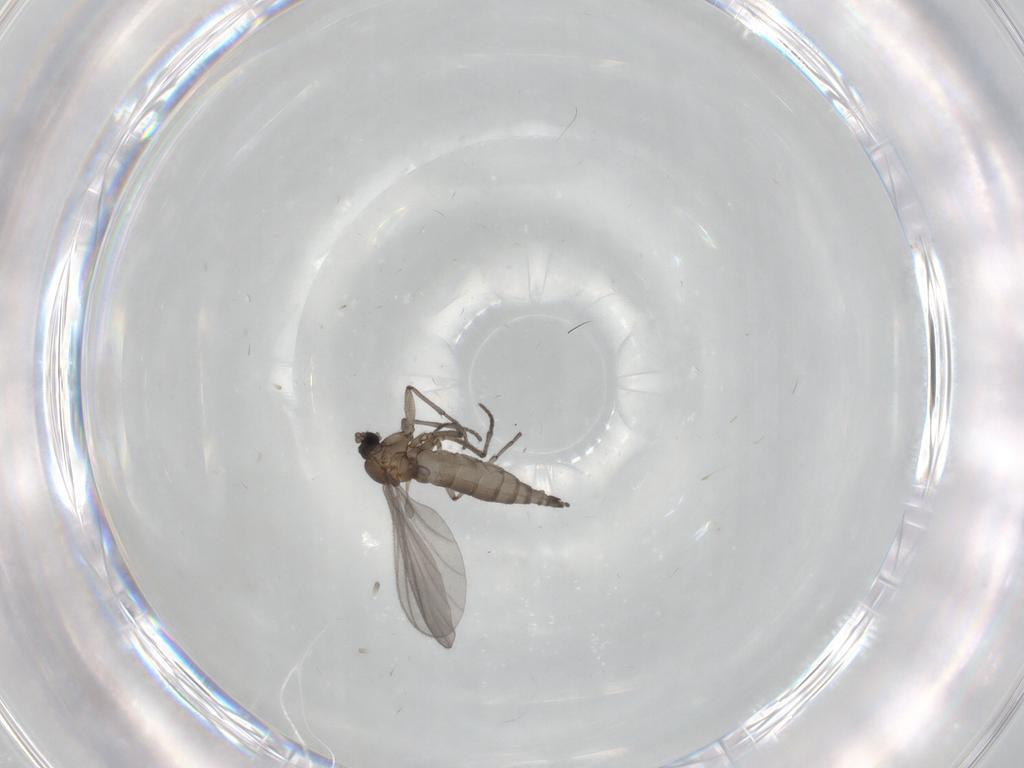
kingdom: Animalia
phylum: Arthropoda
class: Insecta
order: Diptera
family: Sciaridae
